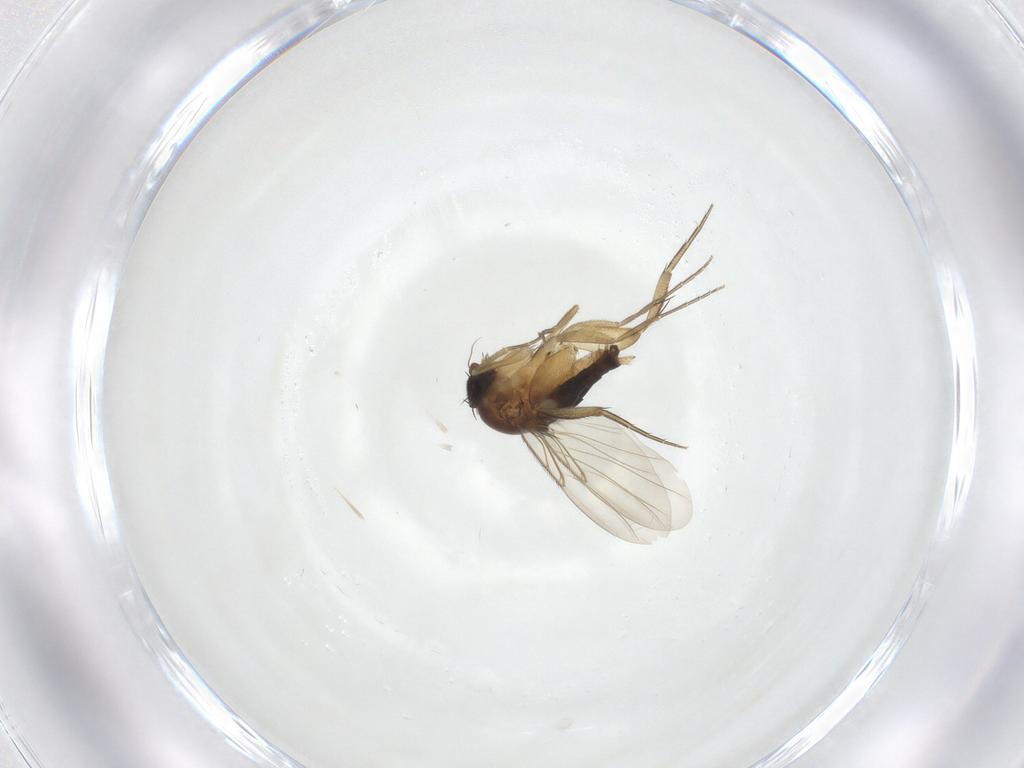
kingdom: Animalia
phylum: Arthropoda
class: Insecta
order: Diptera
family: Phoridae
